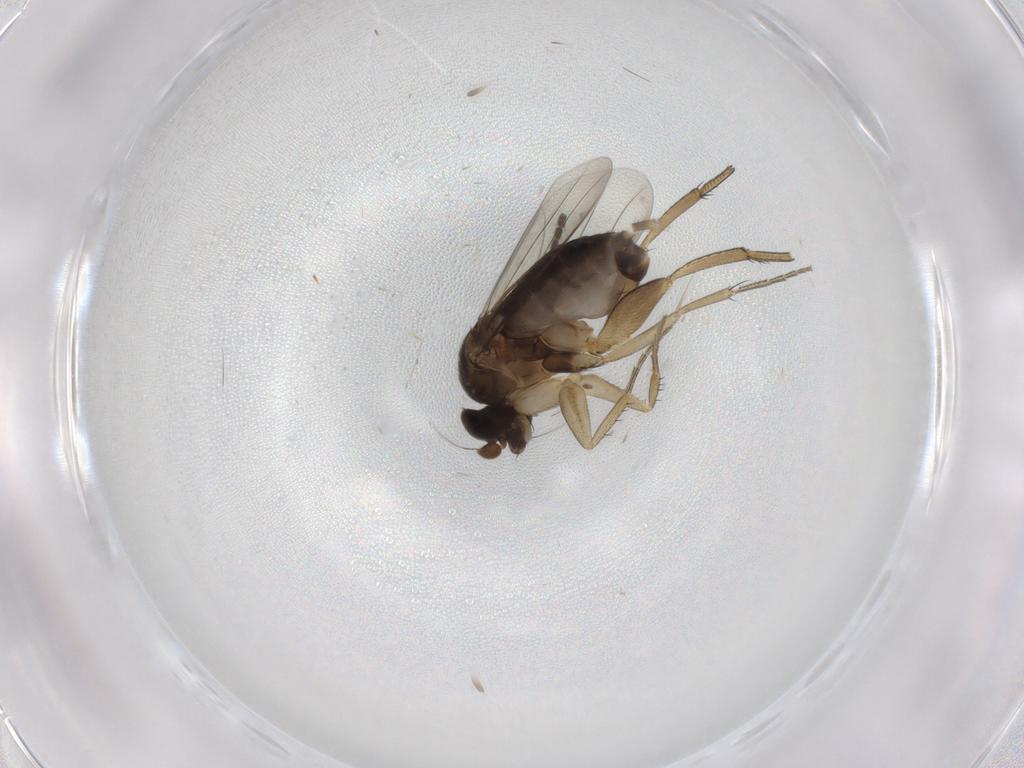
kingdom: Animalia
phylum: Arthropoda
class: Insecta
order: Diptera
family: Phoridae
